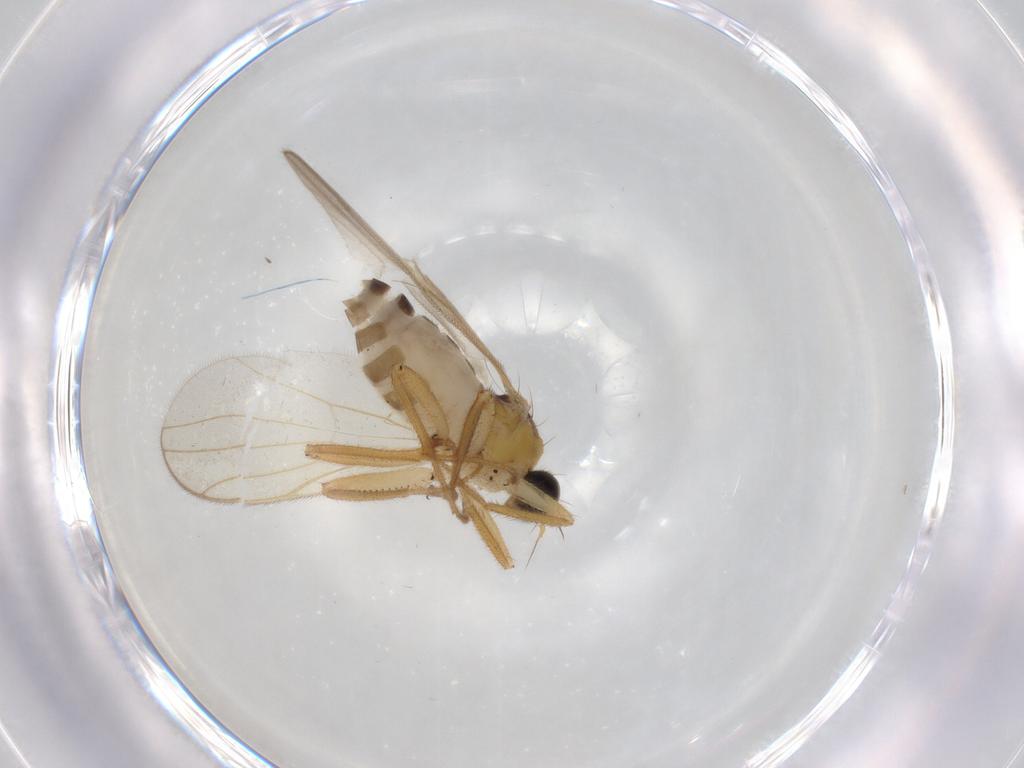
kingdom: Animalia
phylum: Arthropoda
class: Insecta
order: Diptera
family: Hybotidae
